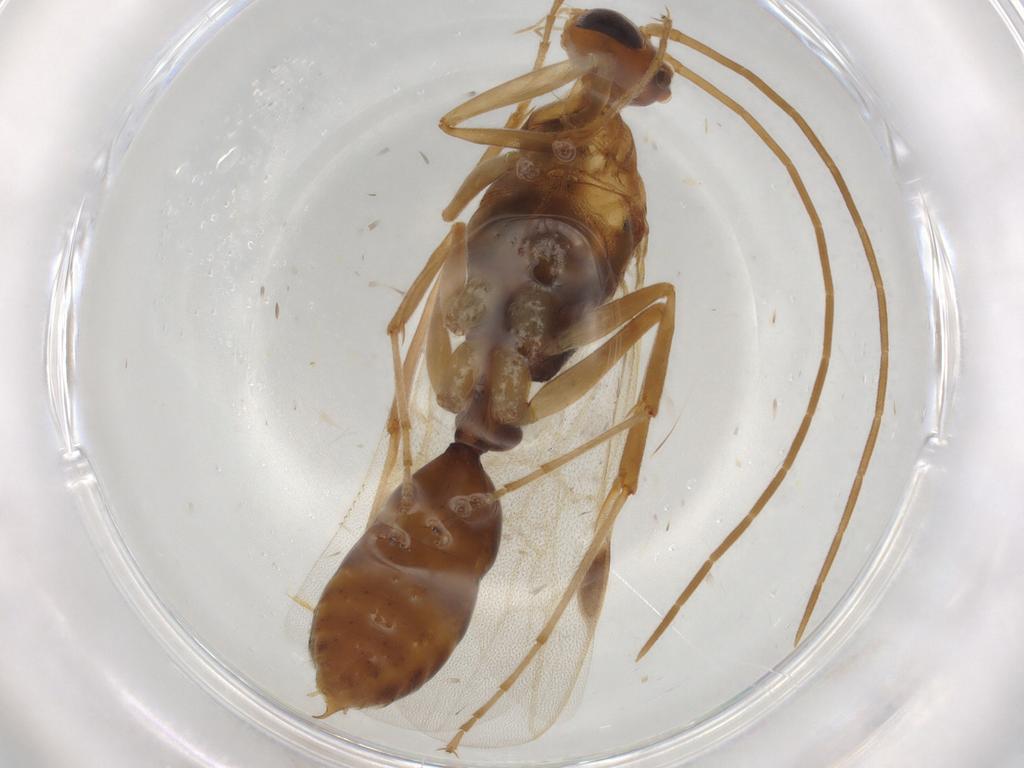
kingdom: Animalia
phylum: Arthropoda
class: Insecta
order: Hymenoptera
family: Formicidae
